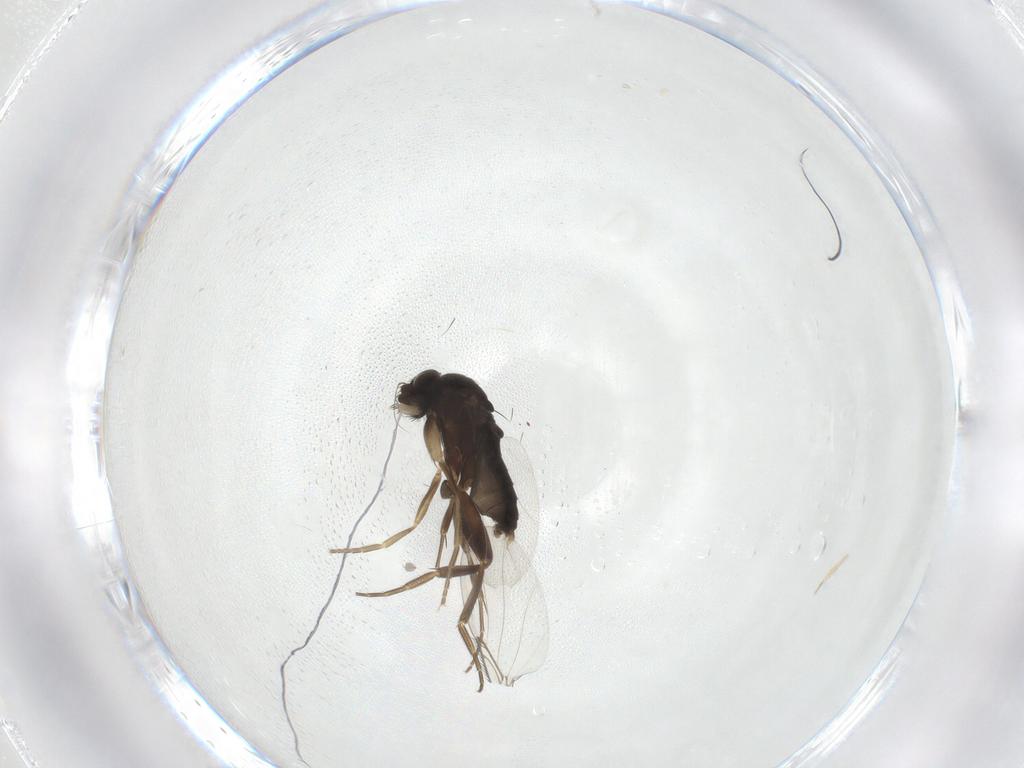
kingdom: Animalia
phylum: Arthropoda
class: Insecta
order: Diptera
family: Phoridae
